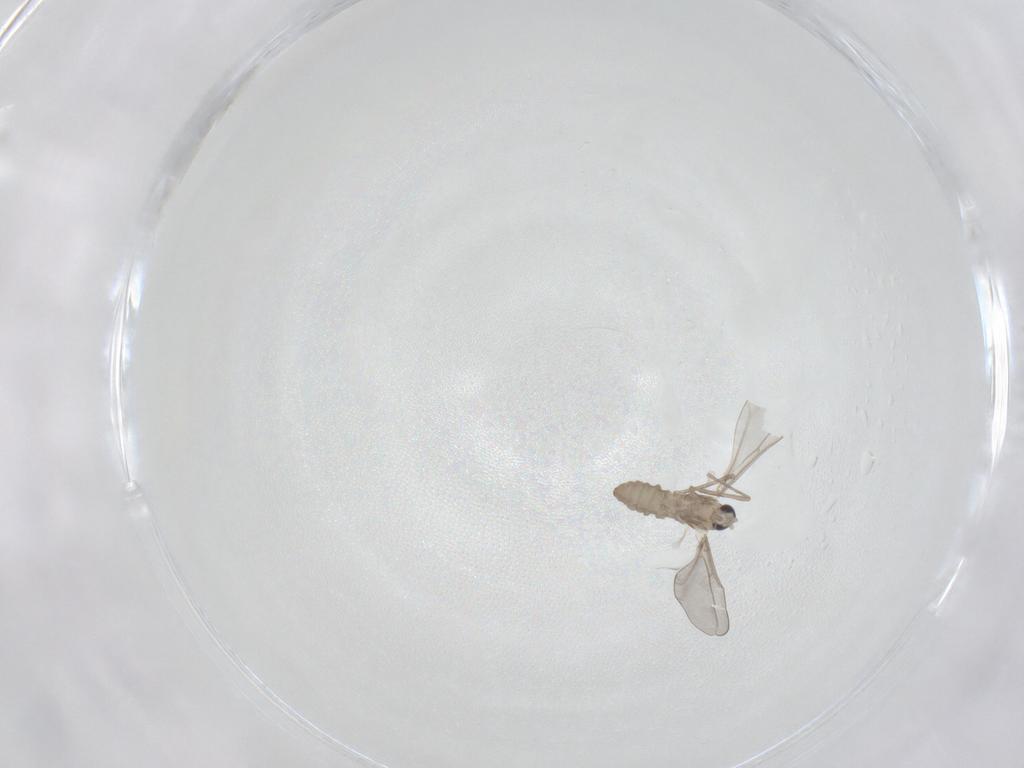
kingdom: Animalia
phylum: Arthropoda
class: Insecta
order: Diptera
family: Cecidomyiidae
